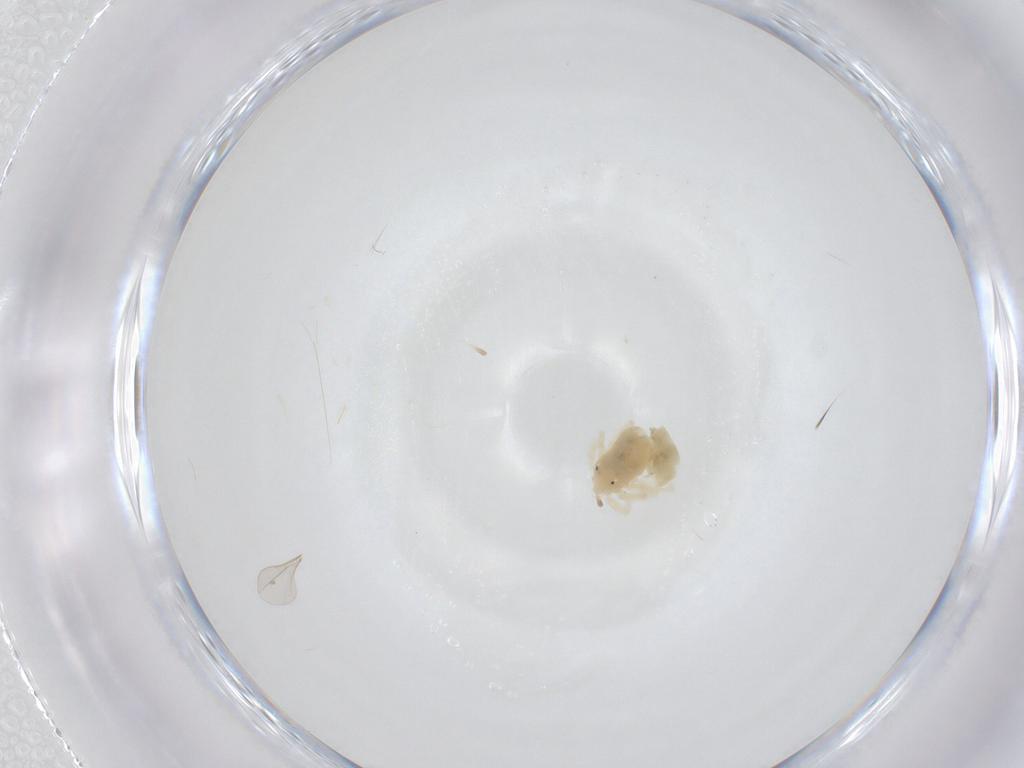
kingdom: Animalia
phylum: Arthropoda
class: Arachnida
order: Trombidiformes
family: Anystidae
